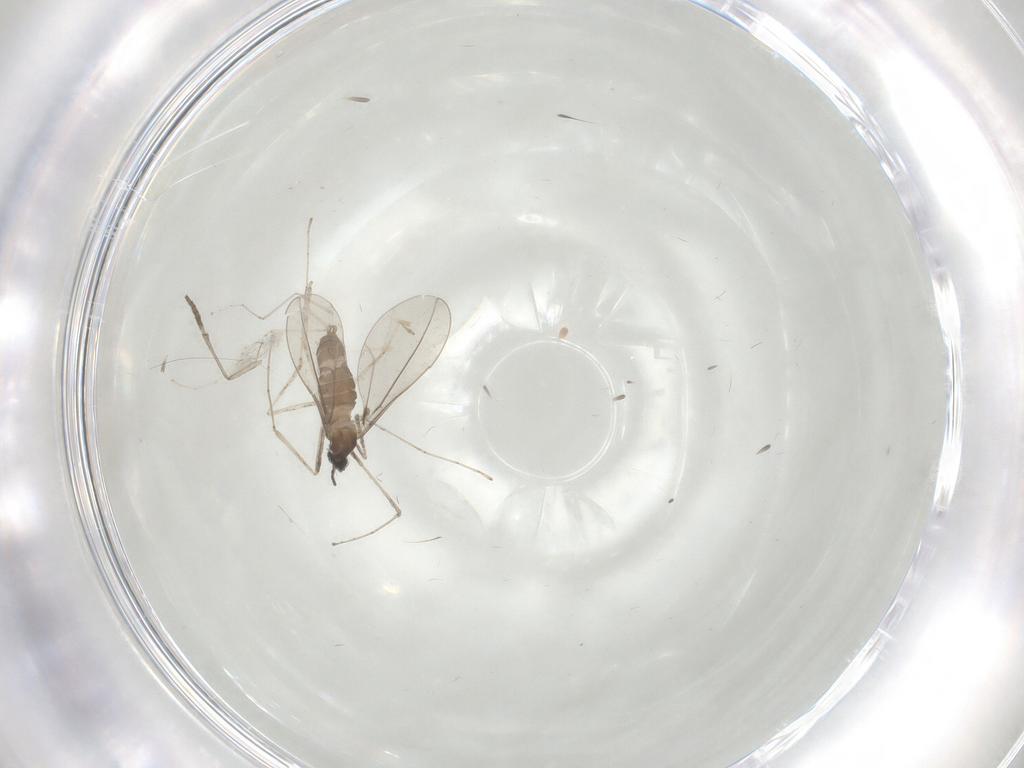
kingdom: Animalia
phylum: Arthropoda
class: Insecta
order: Diptera
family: Cecidomyiidae
